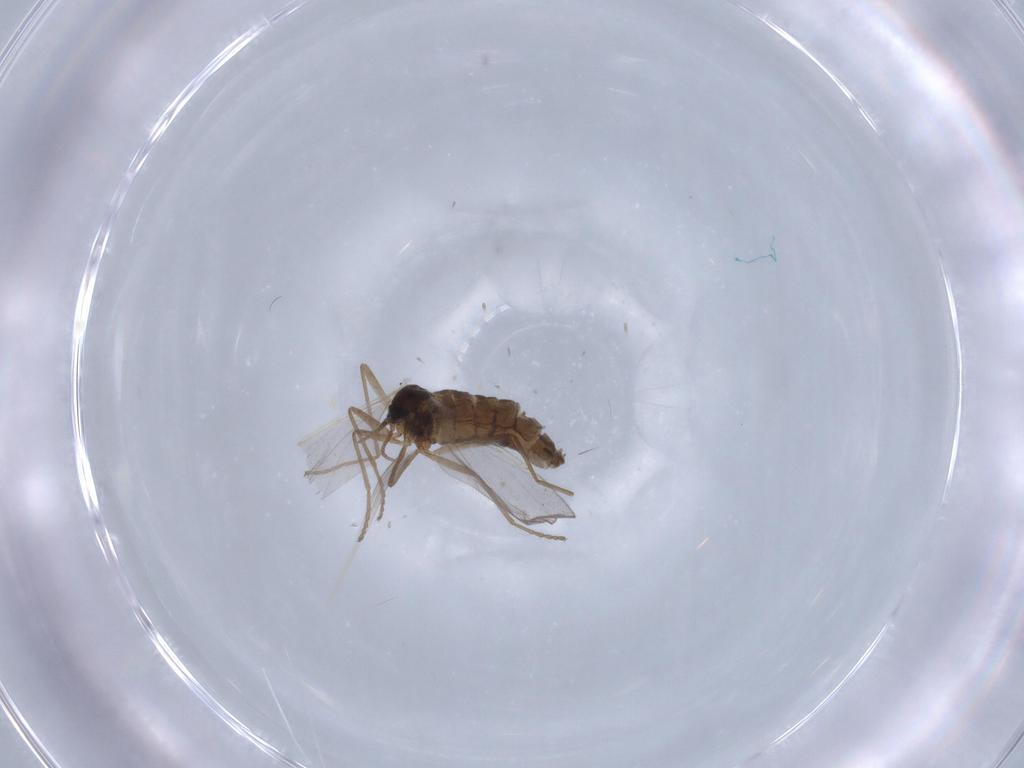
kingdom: Animalia
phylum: Arthropoda
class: Insecta
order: Diptera
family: Cecidomyiidae
